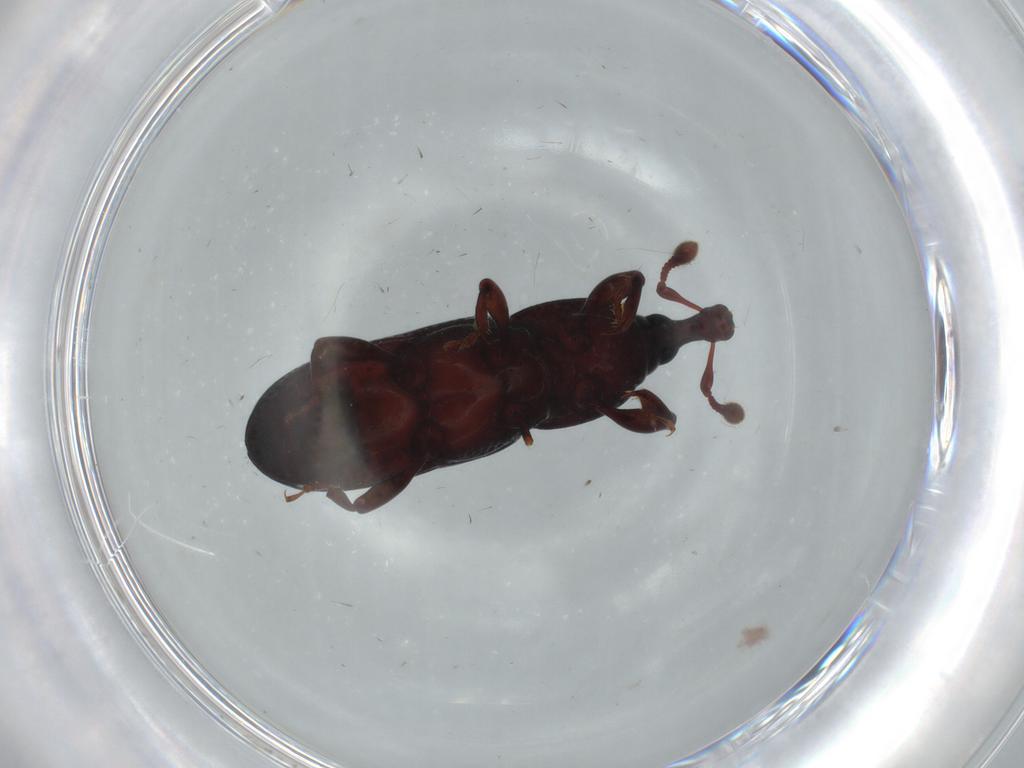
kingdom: Animalia
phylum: Arthropoda
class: Insecta
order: Coleoptera
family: Curculionidae
